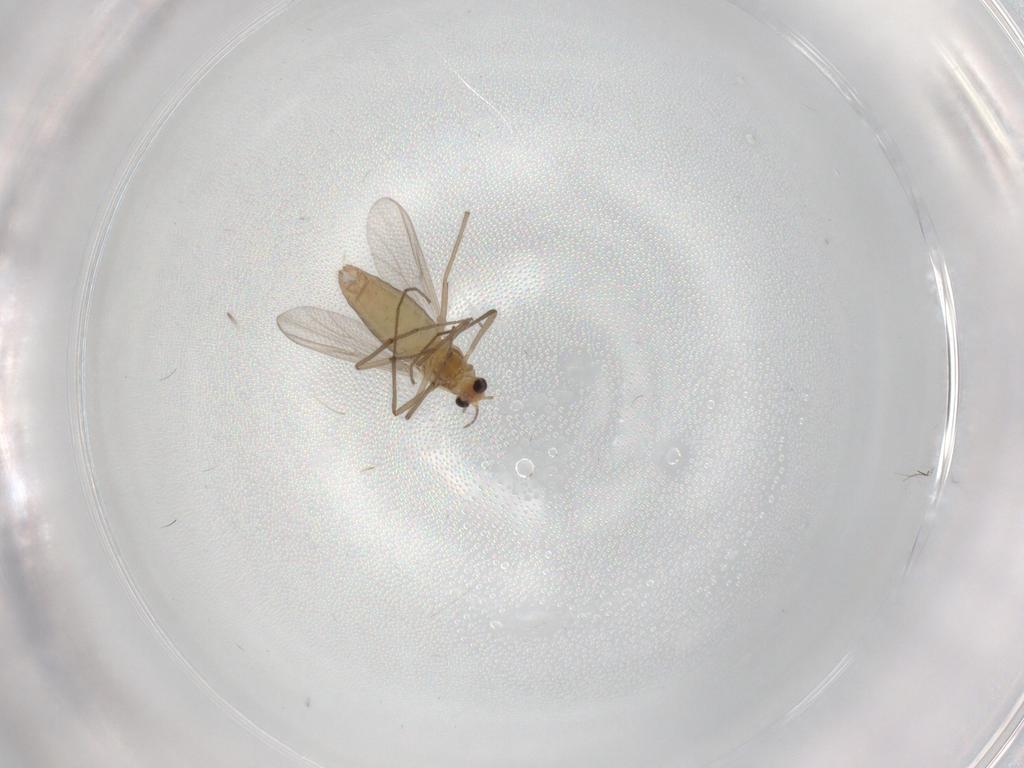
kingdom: Animalia
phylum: Arthropoda
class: Insecta
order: Diptera
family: Chironomidae
